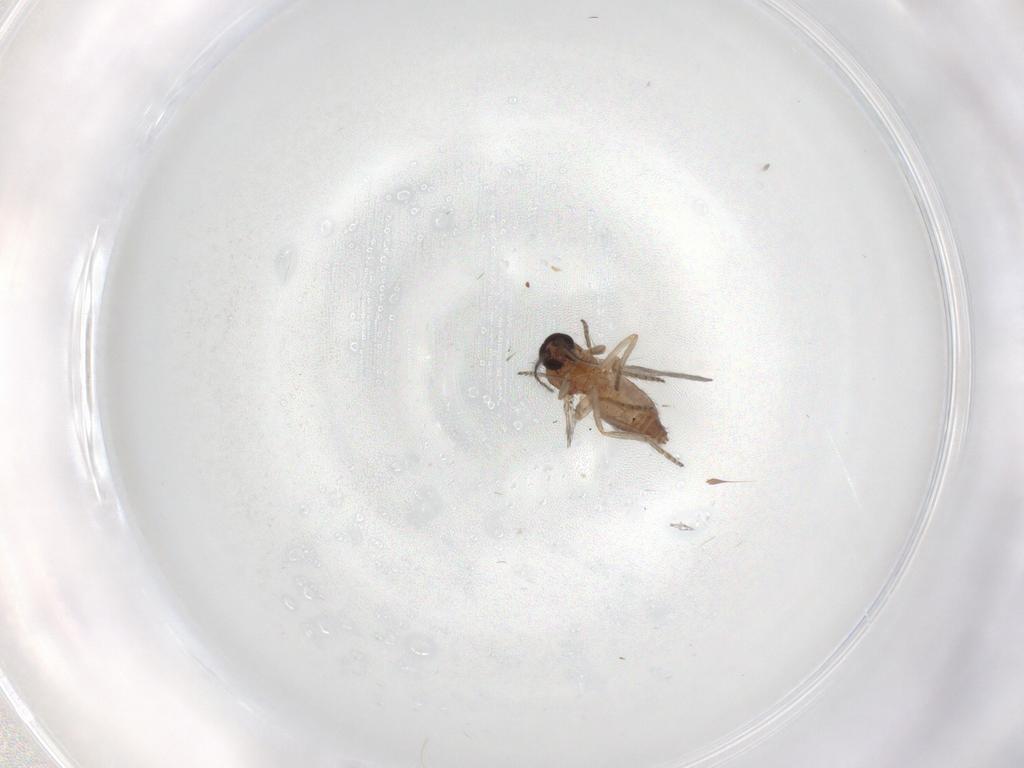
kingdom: Animalia
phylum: Arthropoda
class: Insecta
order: Diptera
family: Ceratopogonidae
